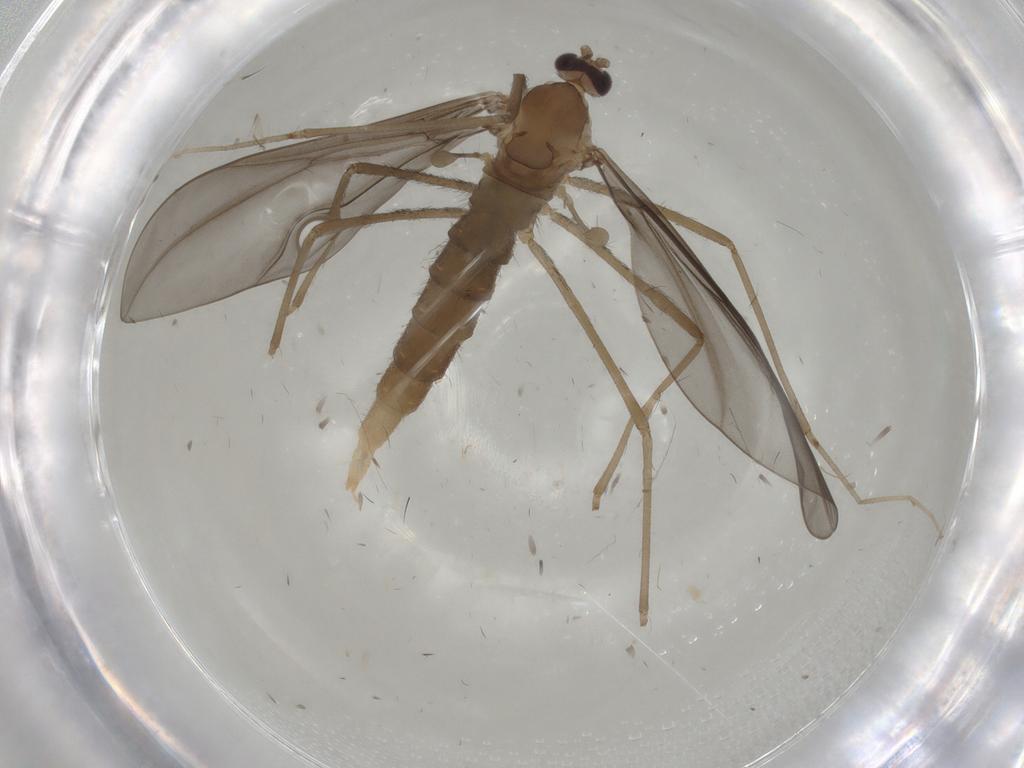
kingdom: Animalia
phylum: Arthropoda
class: Insecta
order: Diptera
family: Cecidomyiidae
